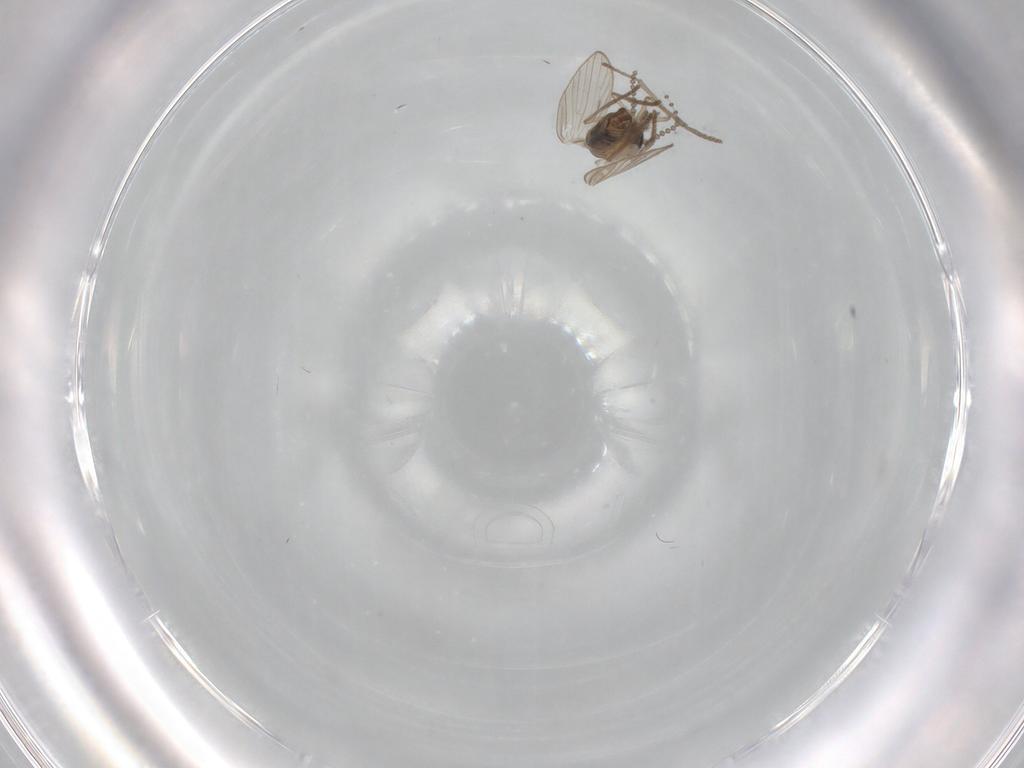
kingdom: Animalia
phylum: Arthropoda
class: Insecta
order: Diptera
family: Psychodidae
